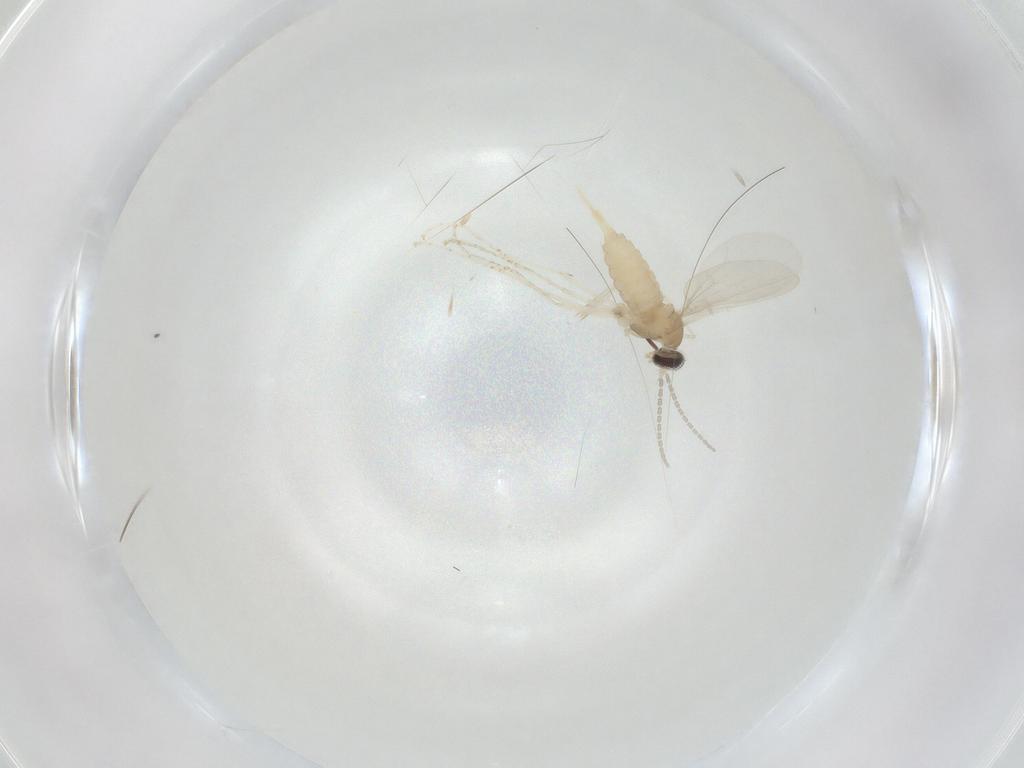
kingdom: Animalia
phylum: Arthropoda
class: Insecta
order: Diptera
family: Cecidomyiidae
